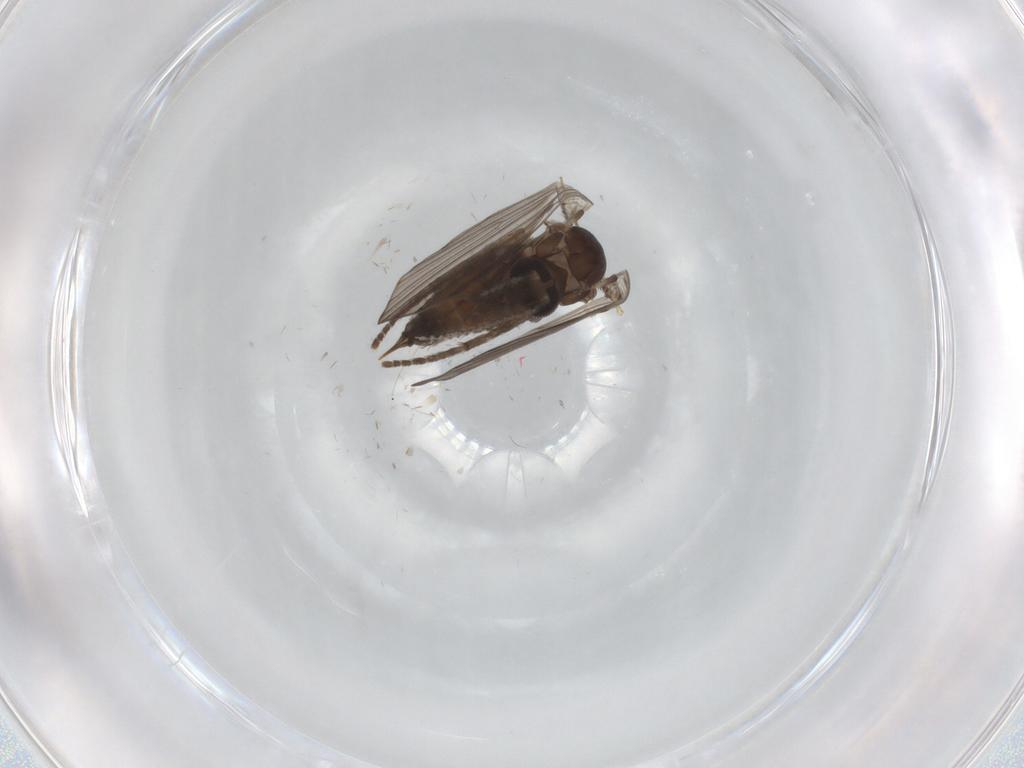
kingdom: Animalia
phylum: Arthropoda
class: Insecta
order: Diptera
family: Psychodidae
